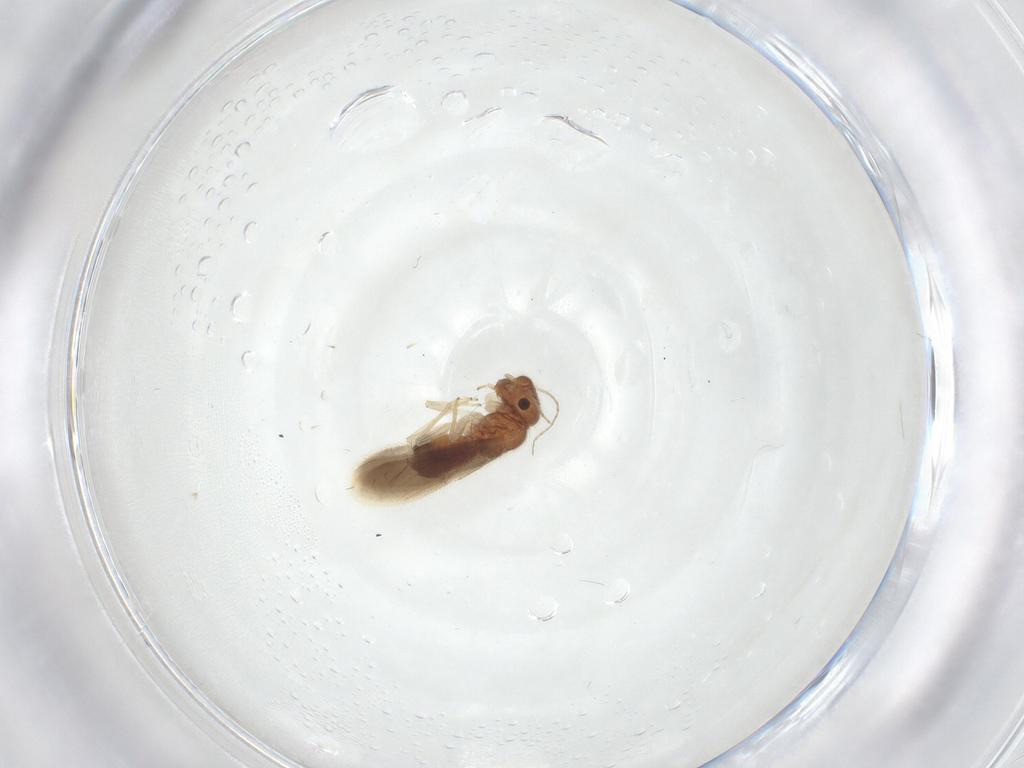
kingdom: Animalia
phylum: Arthropoda
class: Insecta
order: Psocodea
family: Archipsocidae
